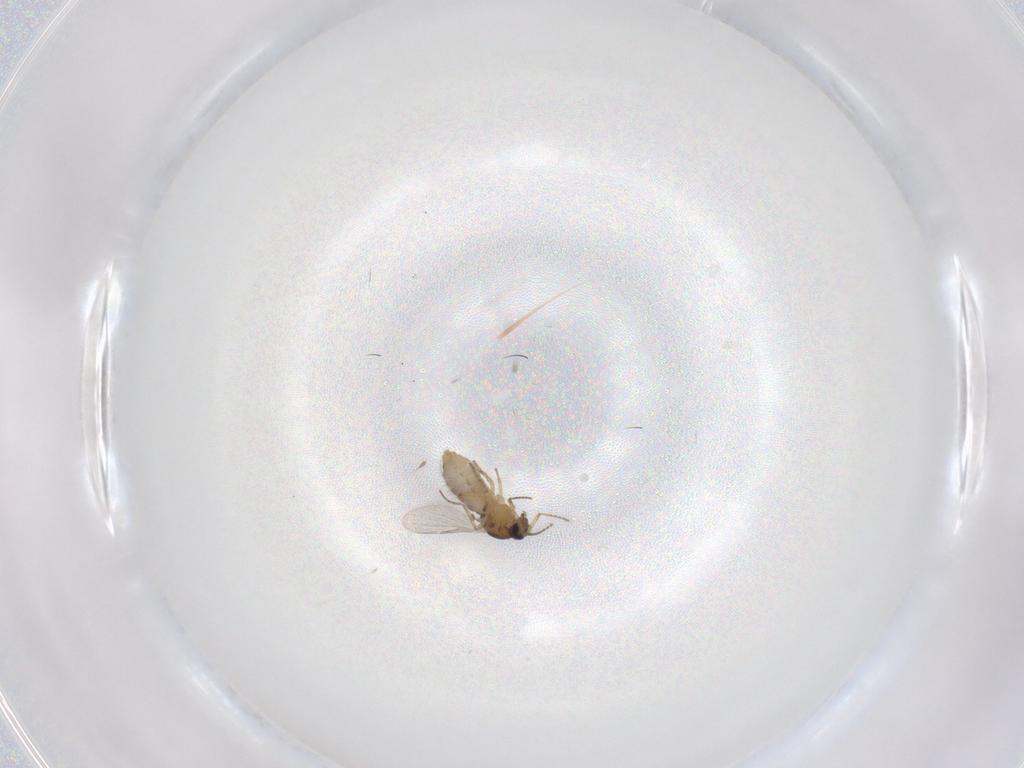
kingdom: Animalia
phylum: Arthropoda
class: Insecta
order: Diptera
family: Ceratopogonidae
